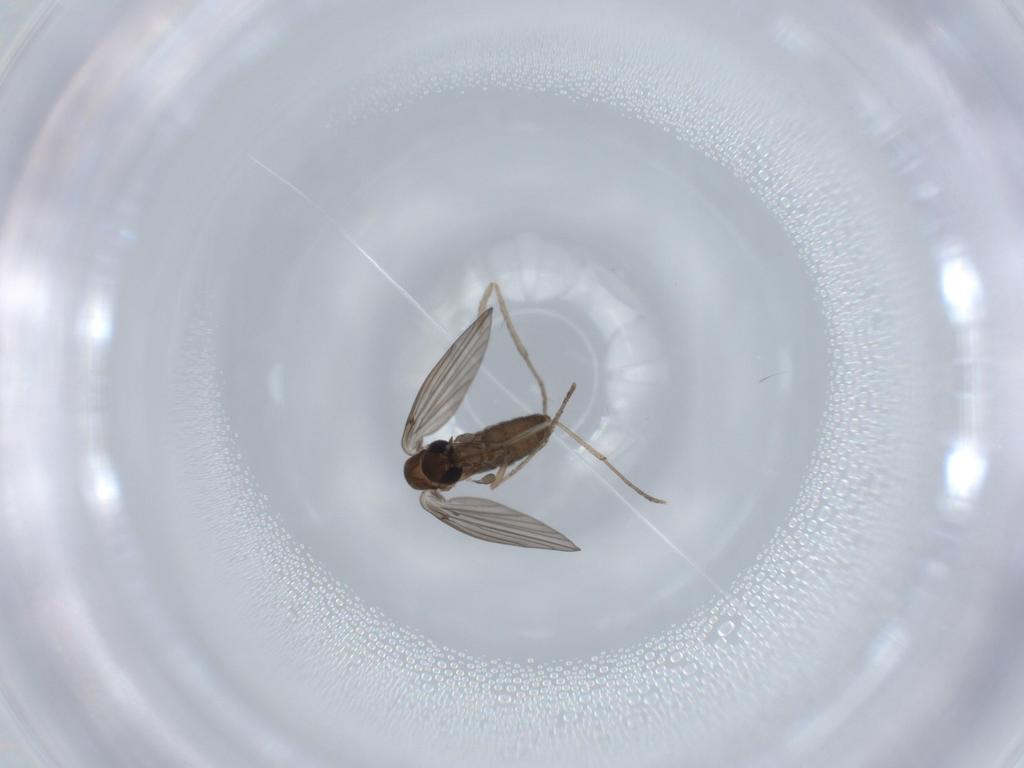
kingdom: Animalia
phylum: Arthropoda
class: Insecta
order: Diptera
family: Psychodidae
